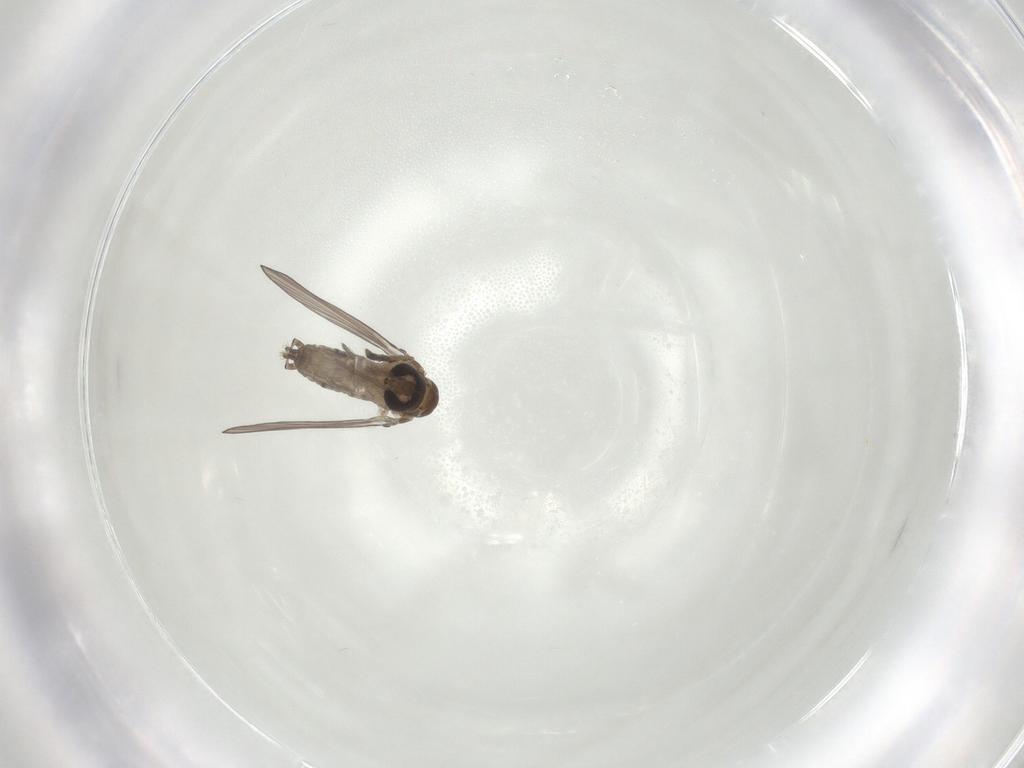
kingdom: Animalia
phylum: Arthropoda
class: Insecta
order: Diptera
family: Psychodidae
